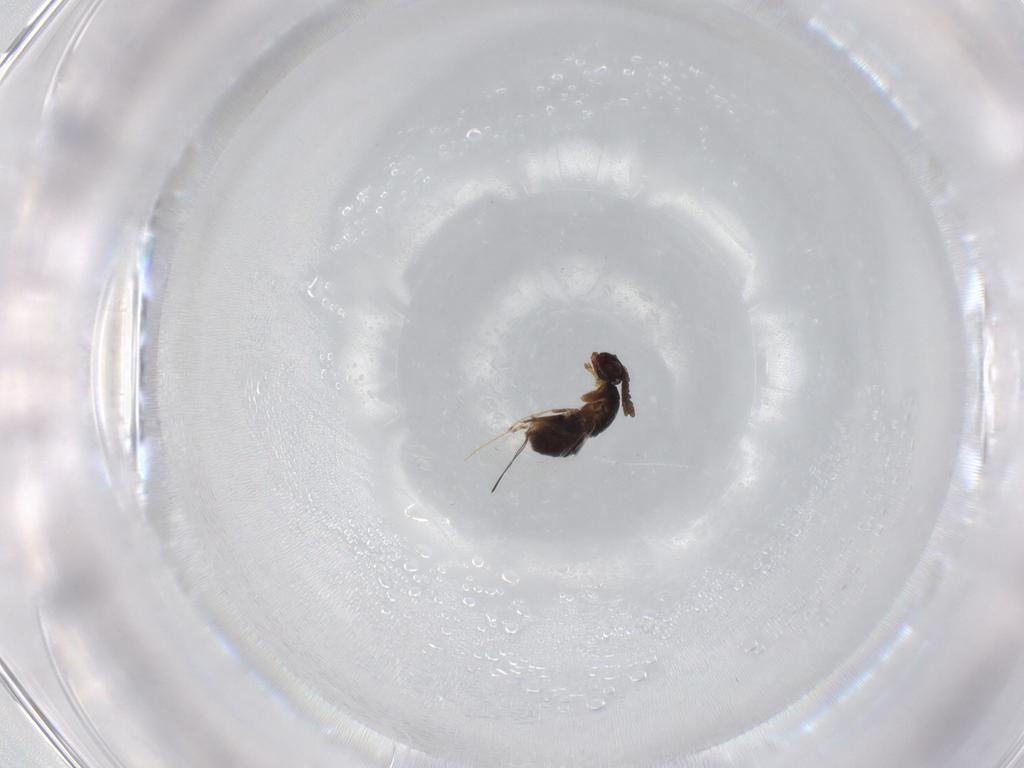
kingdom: Animalia
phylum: Arthropoda
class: Insecta
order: Hymenoptera
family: Agaonidae
